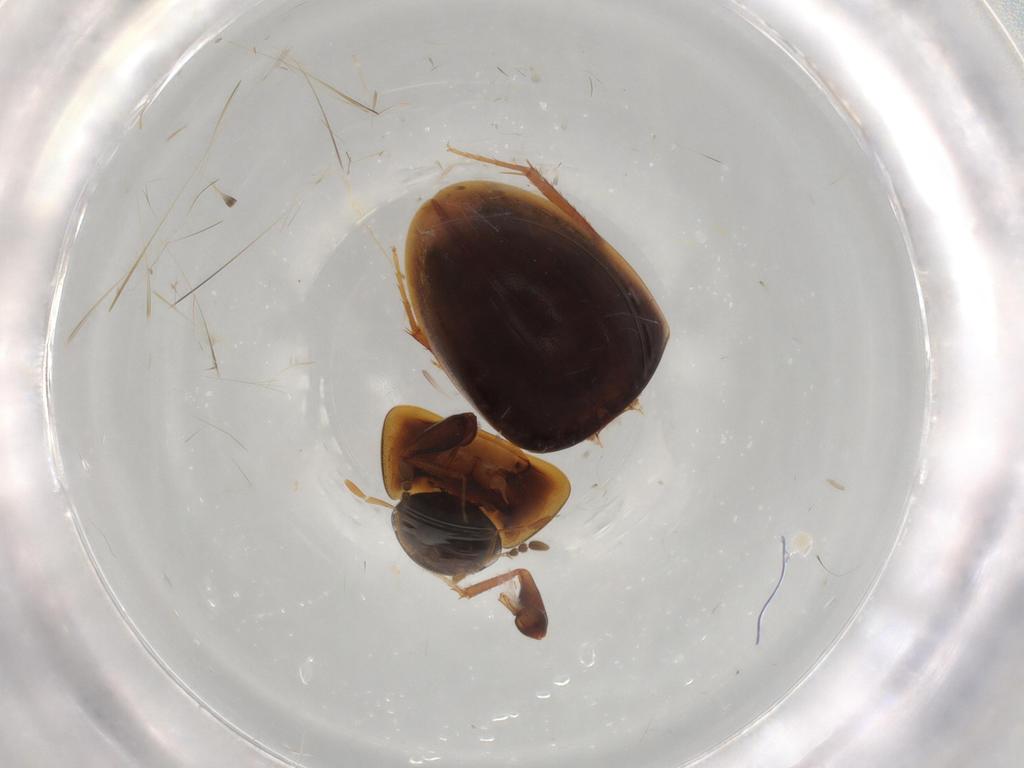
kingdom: Animalia
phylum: Arthropoda
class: Insecta
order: Coleoptera
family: Hydrophilidae
